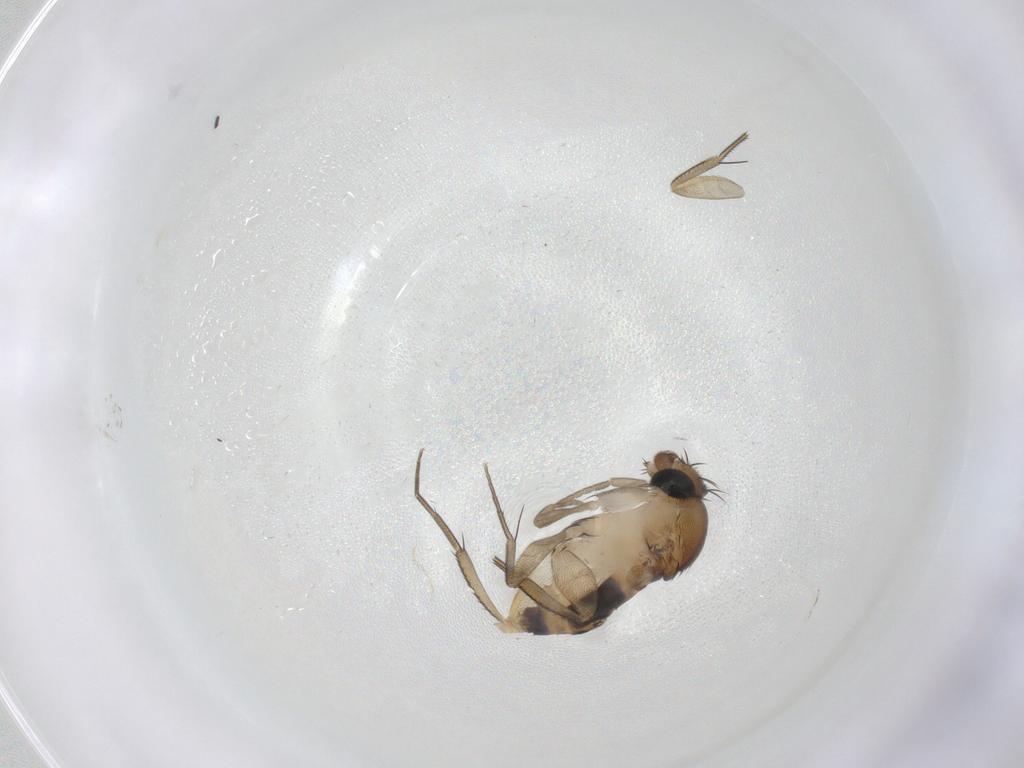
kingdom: Animalia
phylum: Arthropoda
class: Insecta
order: Diptera
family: Phoridae
